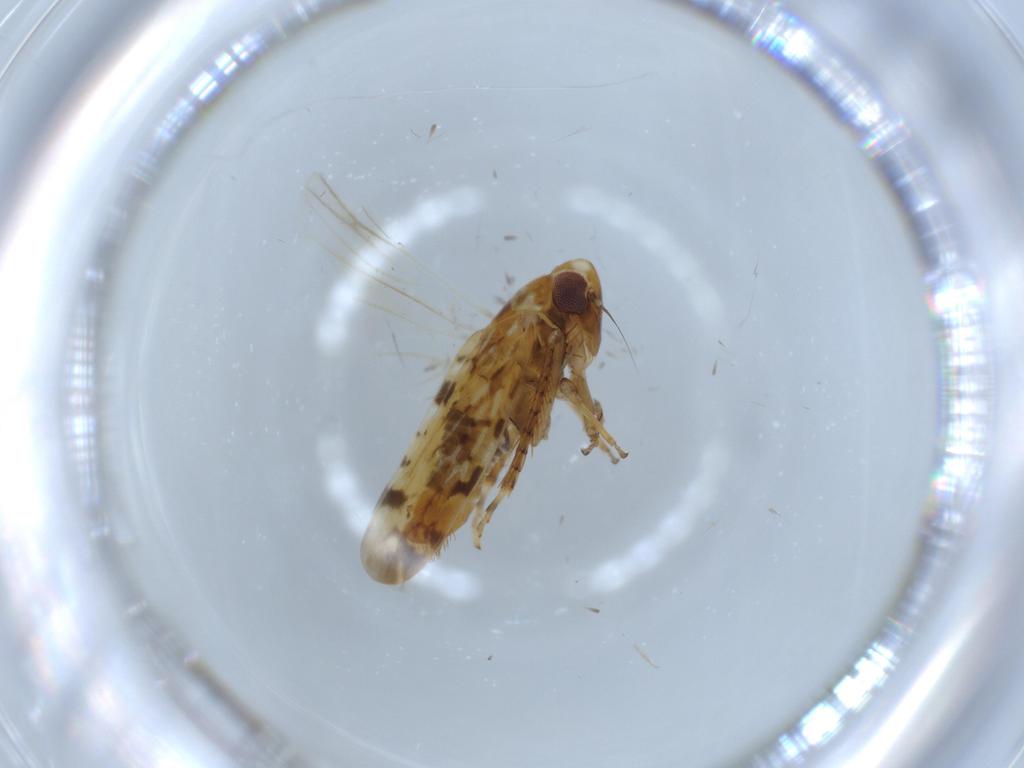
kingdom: Animalia
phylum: Arthropoda
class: Insecta
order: Hemiptera
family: Cicadellidae
